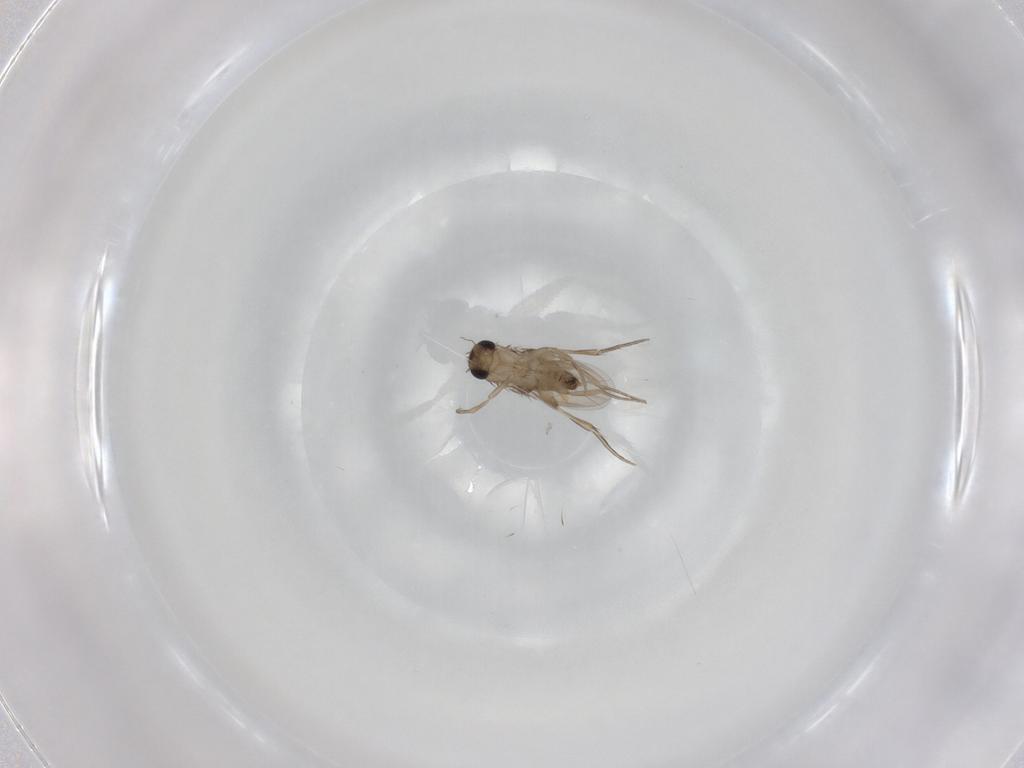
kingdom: Animalia
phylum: Arthropoda
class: Insecta
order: Diptera
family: Phoridae
